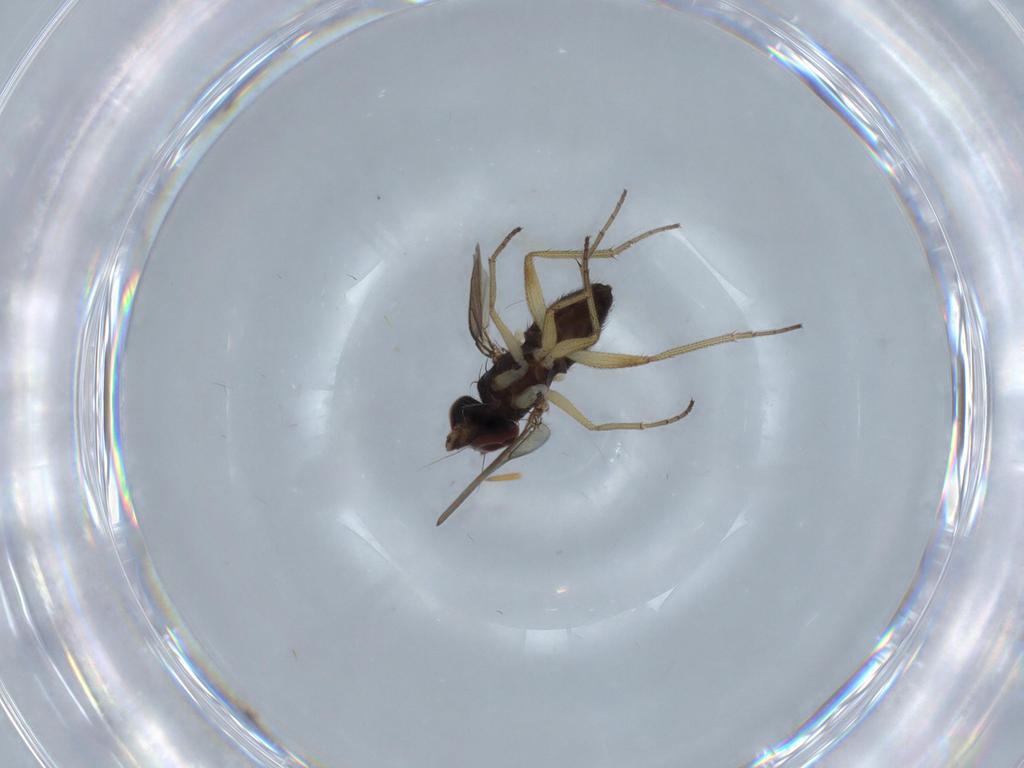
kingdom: Animalia
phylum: Arthropoda
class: Insecta
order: Diptera
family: Dolichopodidae
